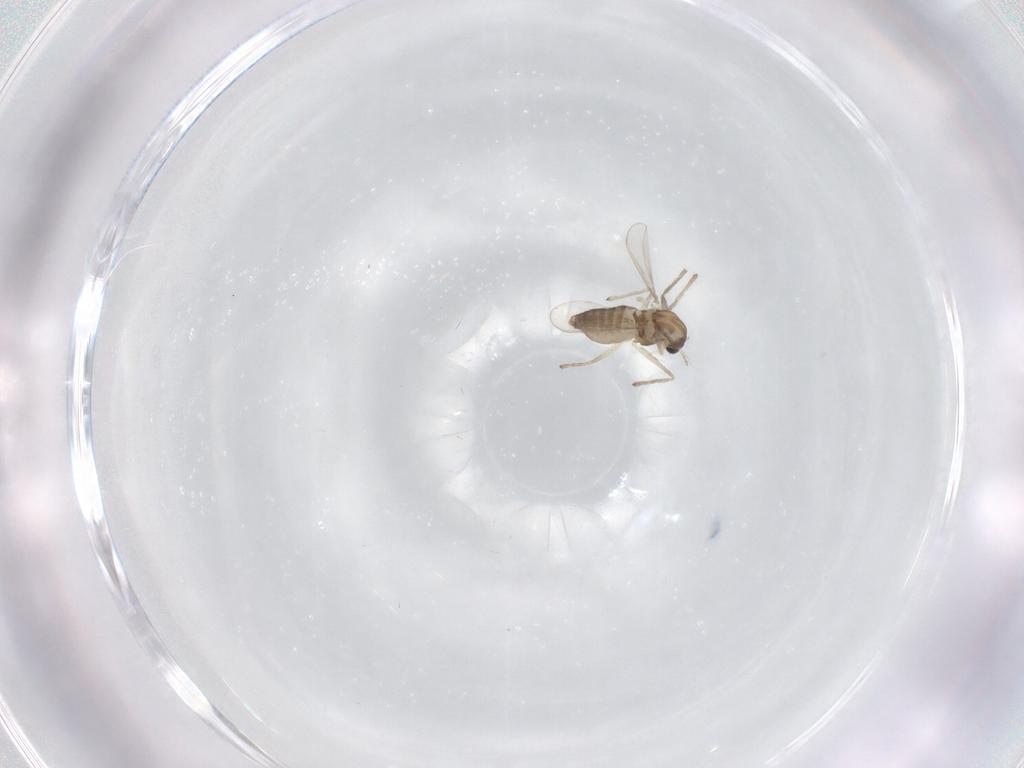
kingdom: Animalia
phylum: Arthropoda
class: Insecta
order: Diptera
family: Chironomidae
